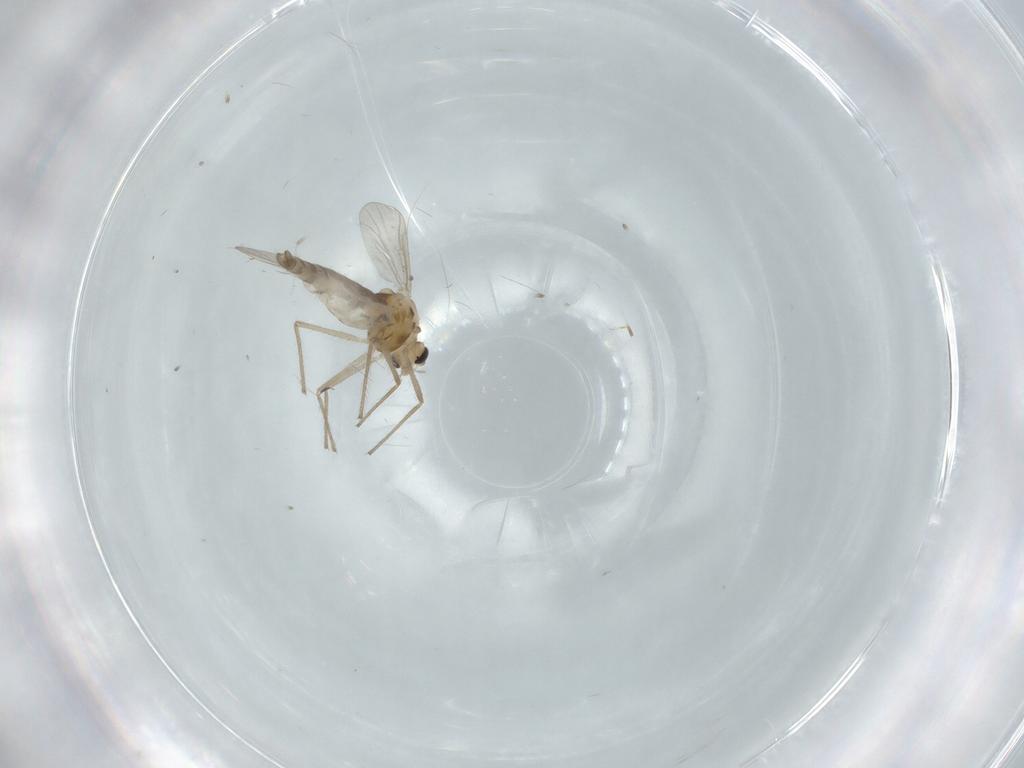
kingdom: Animalia
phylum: Arthropoda
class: Insecta
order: Diptera
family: Chironomidae
